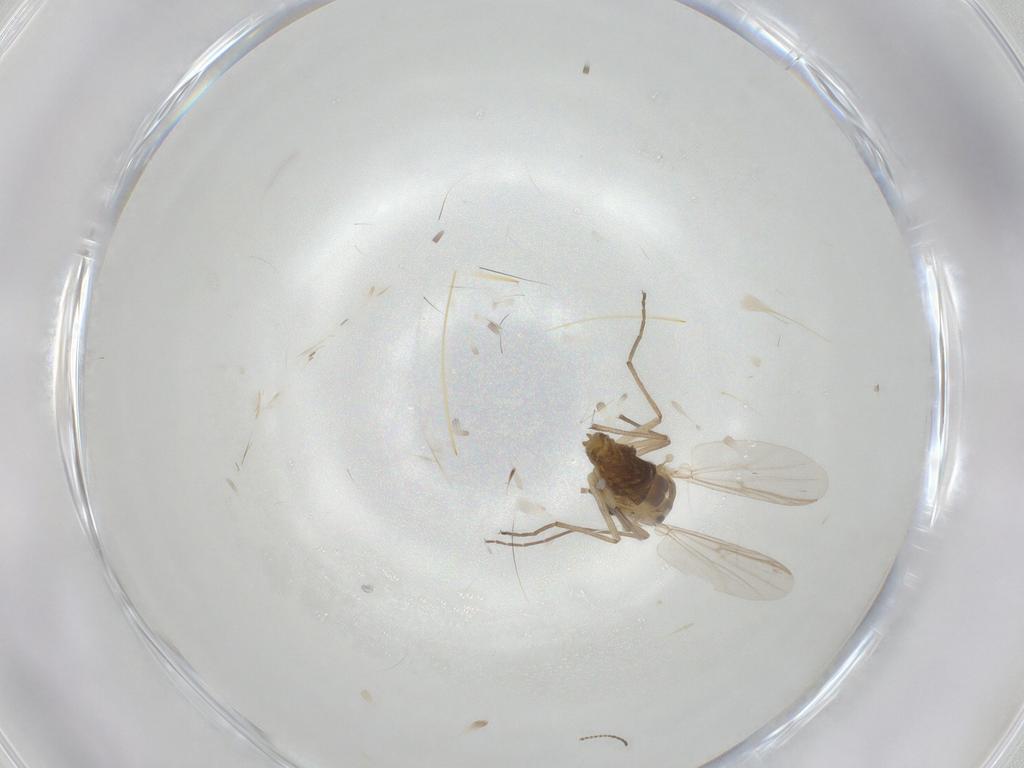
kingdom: Animalia
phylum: Arthropoda
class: Insecta
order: Diptera
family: Chironomidae
